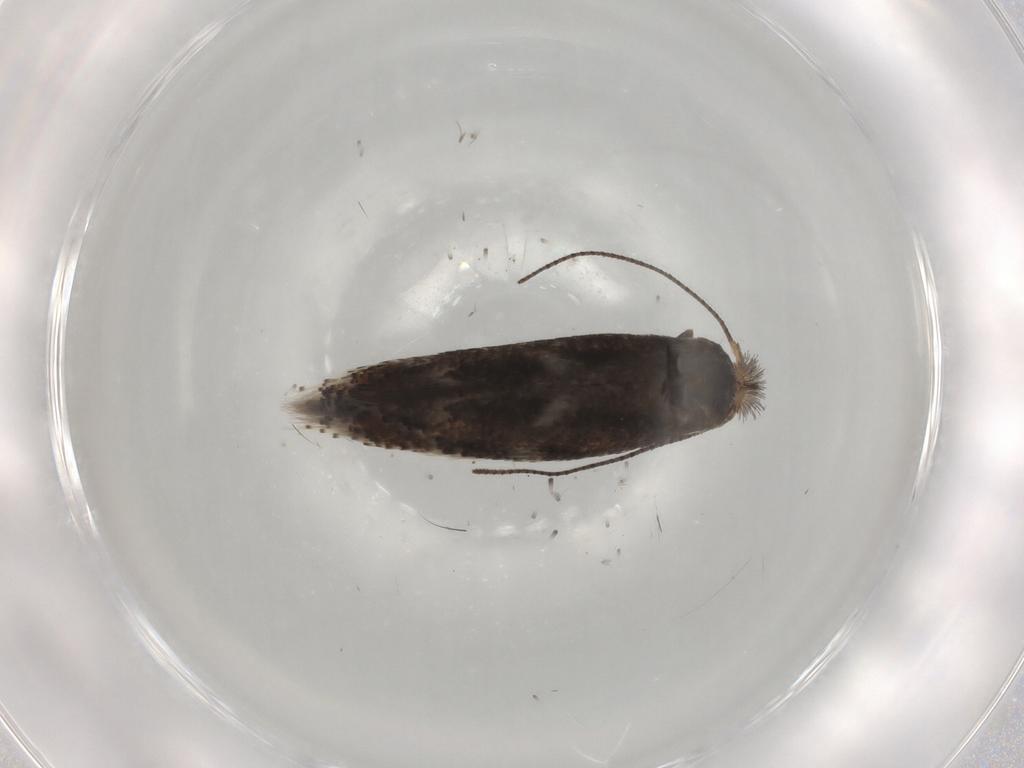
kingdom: Animalia
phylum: Arthropoda
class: Insecta
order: Lepidoptera
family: Bucculatricidae
